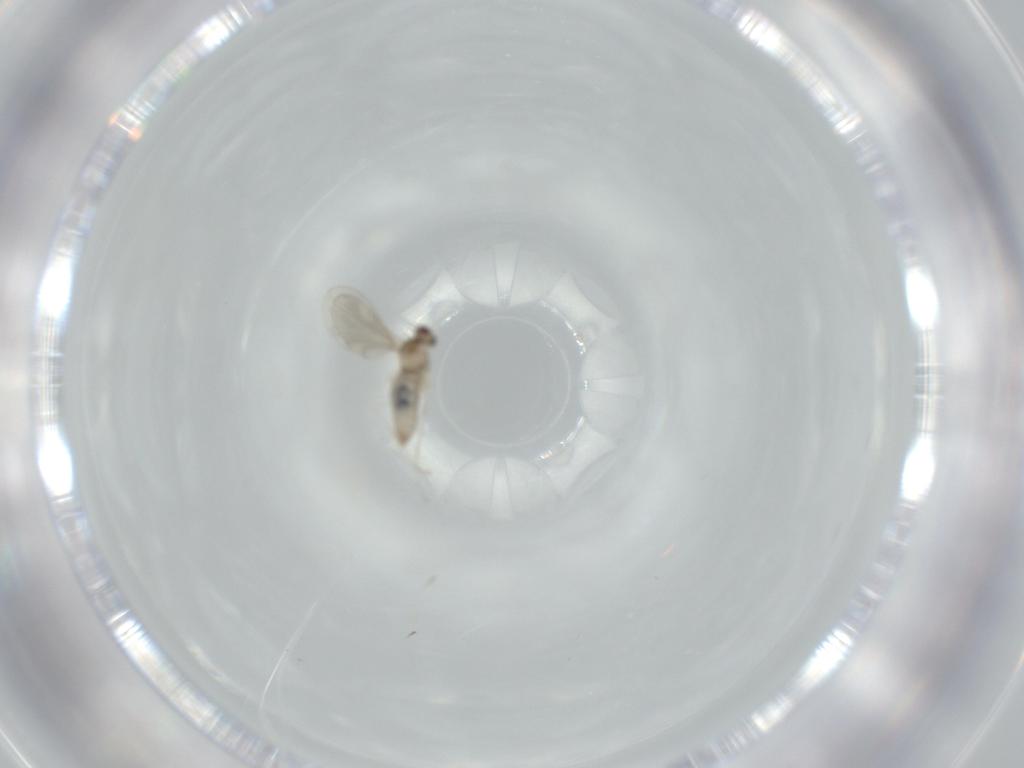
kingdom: Animalia
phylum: Arthropoda
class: Insecta
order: Diptera
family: Cecidomyiidae
